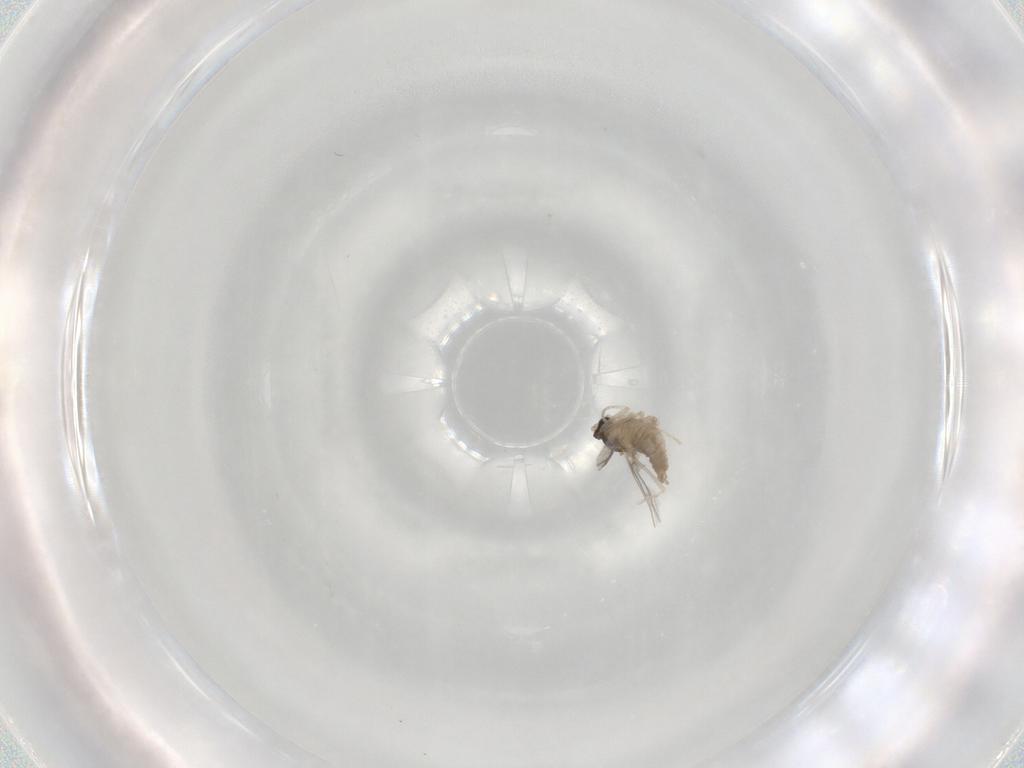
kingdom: Animalia
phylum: Arthropoda
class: Insecta
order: Diptera
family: Cecidomyiidae
